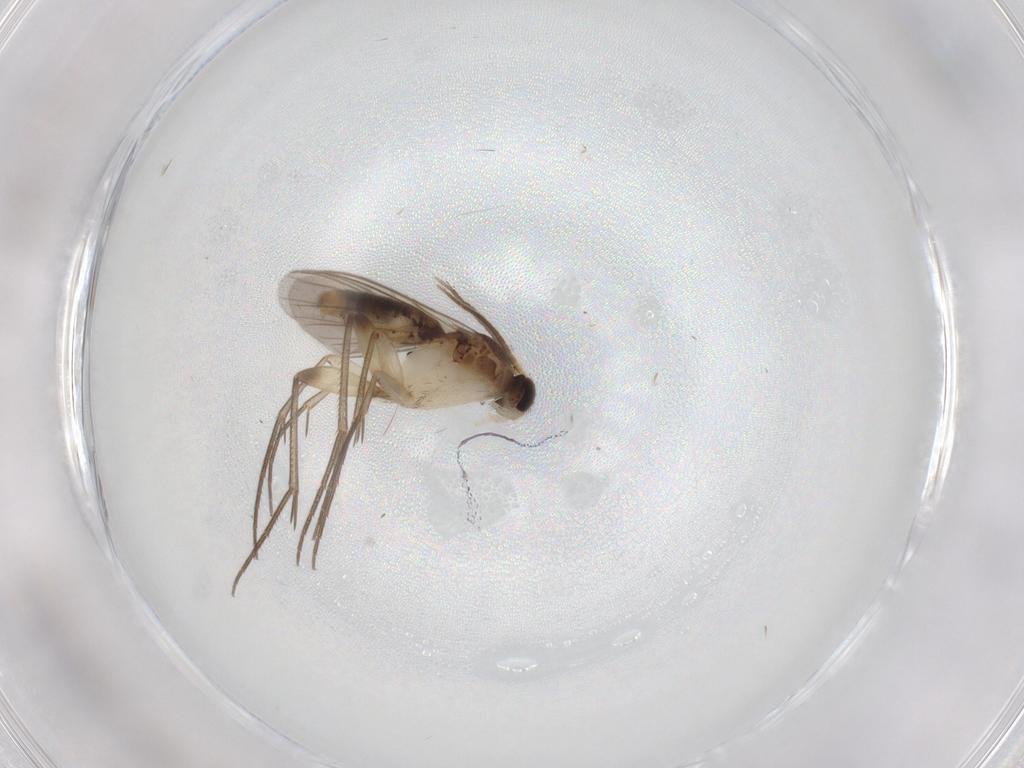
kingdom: Animalia
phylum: Arthropoda
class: Insecta
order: Diptera
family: Mycetophilidae
